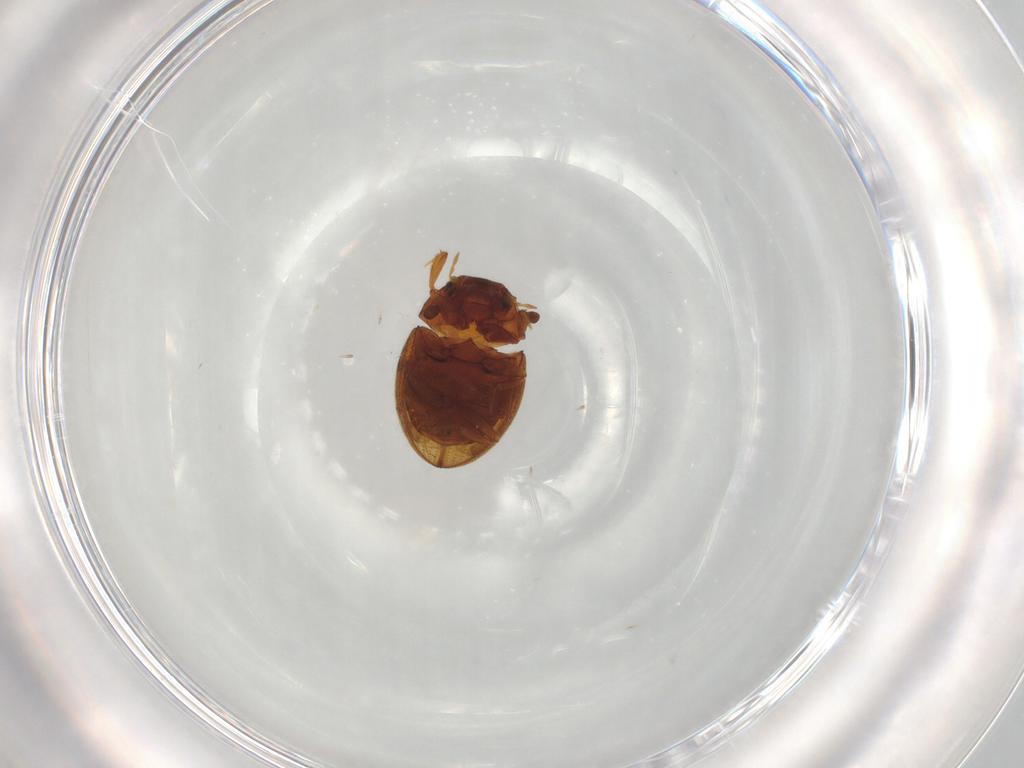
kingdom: Animalia
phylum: Arthropoda
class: Insecta
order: Coleoptera
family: Hydrophilidae
